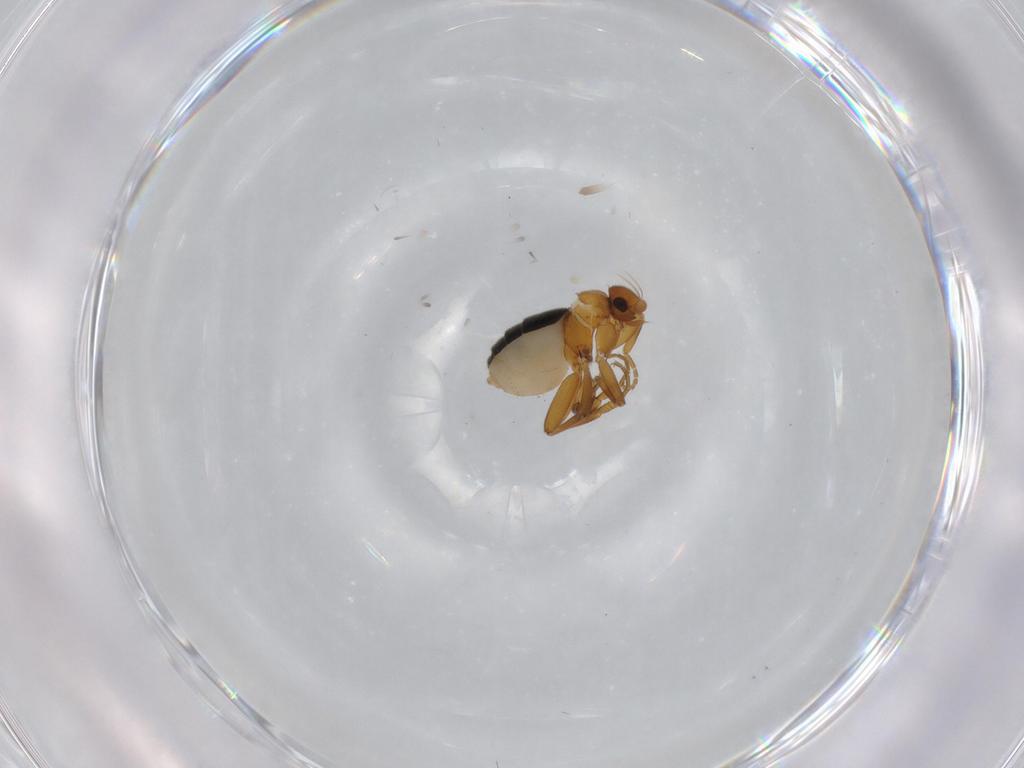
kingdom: Animalia
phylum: Arthropoda
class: Insecta
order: Diptera
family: Phoridae
